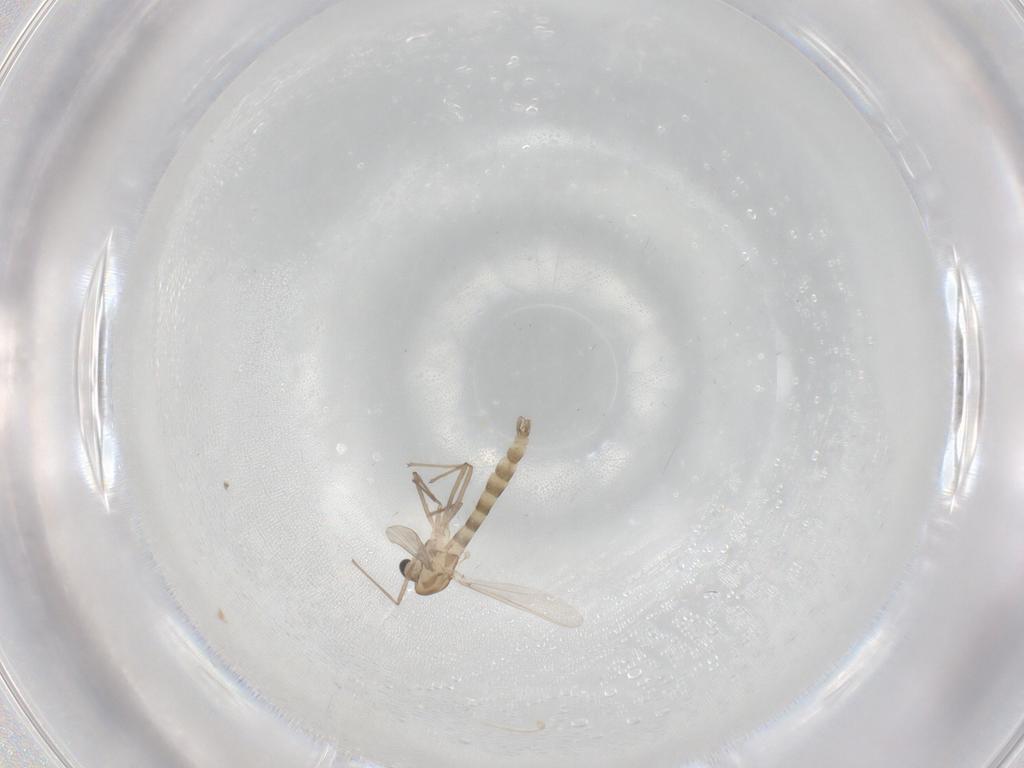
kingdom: Animalia
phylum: Arthropoda
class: Insecta
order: Diptera
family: Chironomidae
